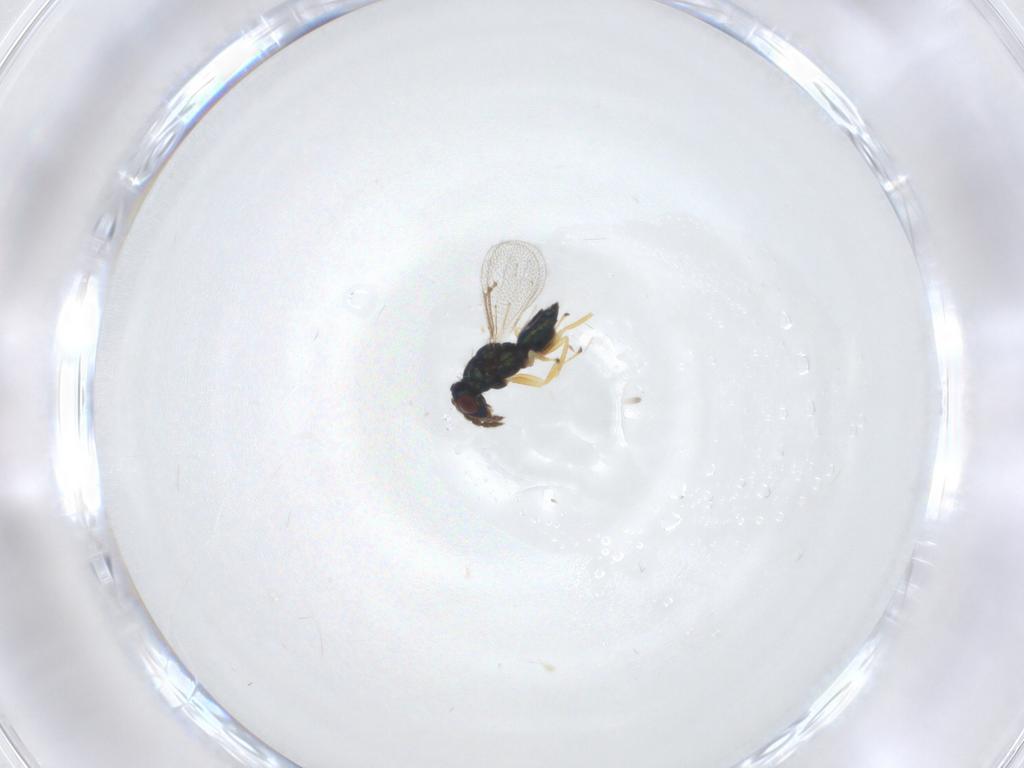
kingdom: Animalia
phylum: Arthropoda
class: Insecta
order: Hymenoptera
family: Eulophidae
